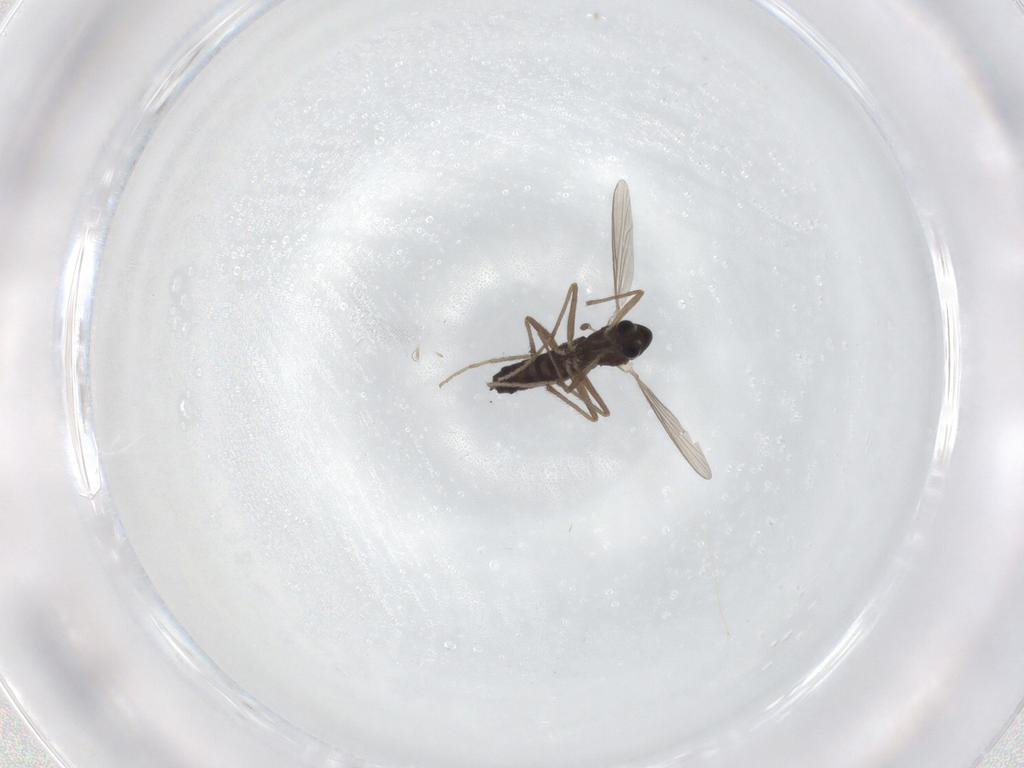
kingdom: Animalia
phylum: Arthropoda
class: Insecta
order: Diptera
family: Chironomidae
